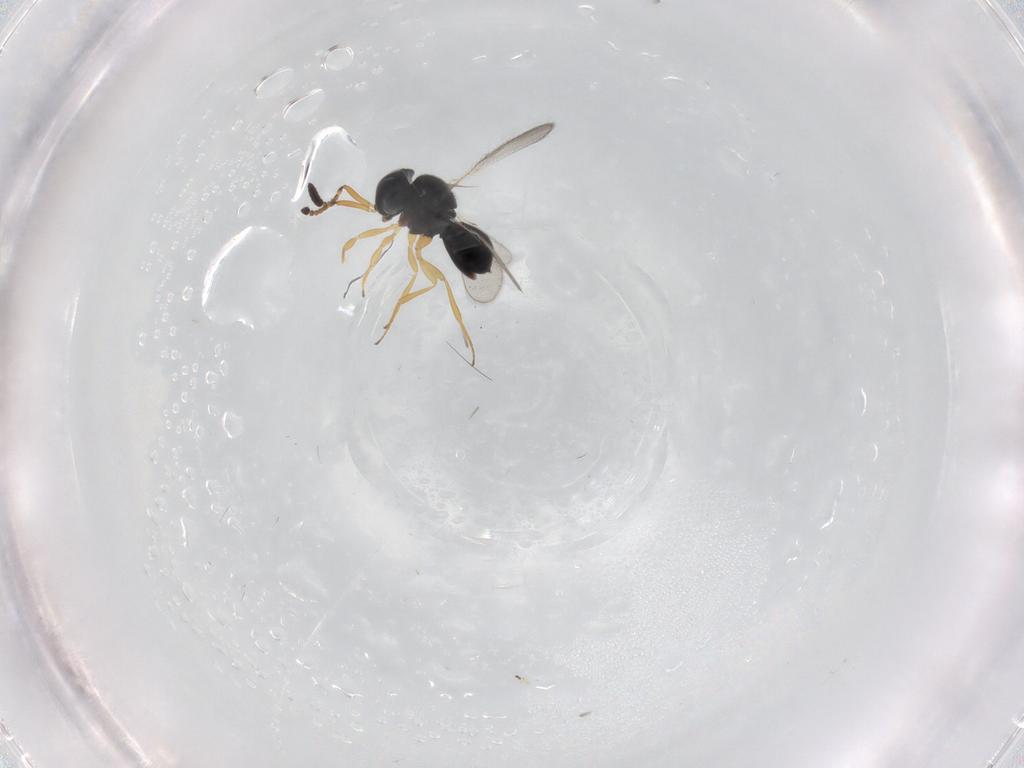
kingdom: Animalia
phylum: Arthropoda
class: Insecta
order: Hymenoptera
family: Scelionidae
